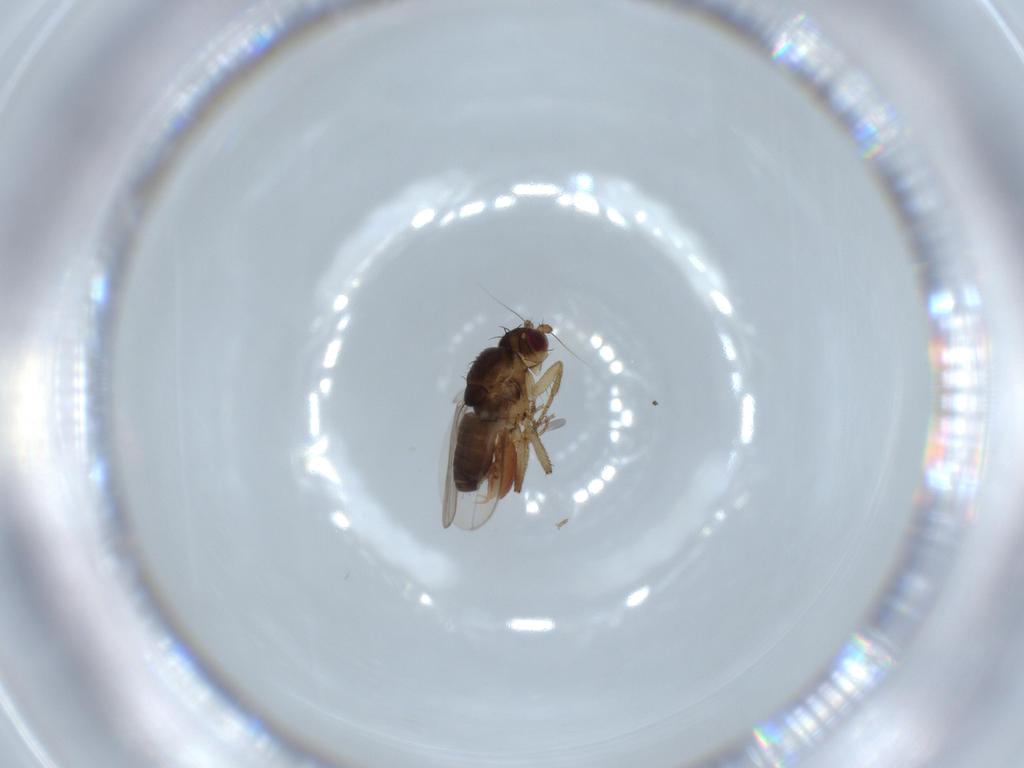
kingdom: Animalia
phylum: Arthropoda
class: Insecta
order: Diptera
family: Sphaeroceridae
